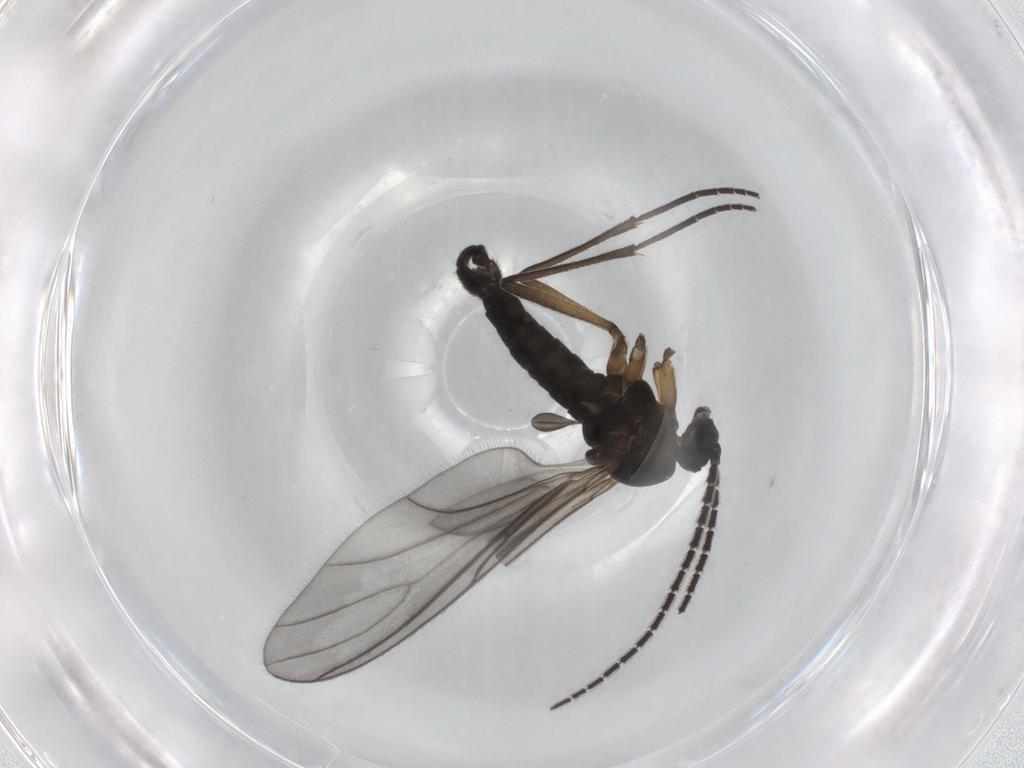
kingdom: Animalia
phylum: Arthropoda
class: Insecta
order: Diptera
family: Sciaridae
